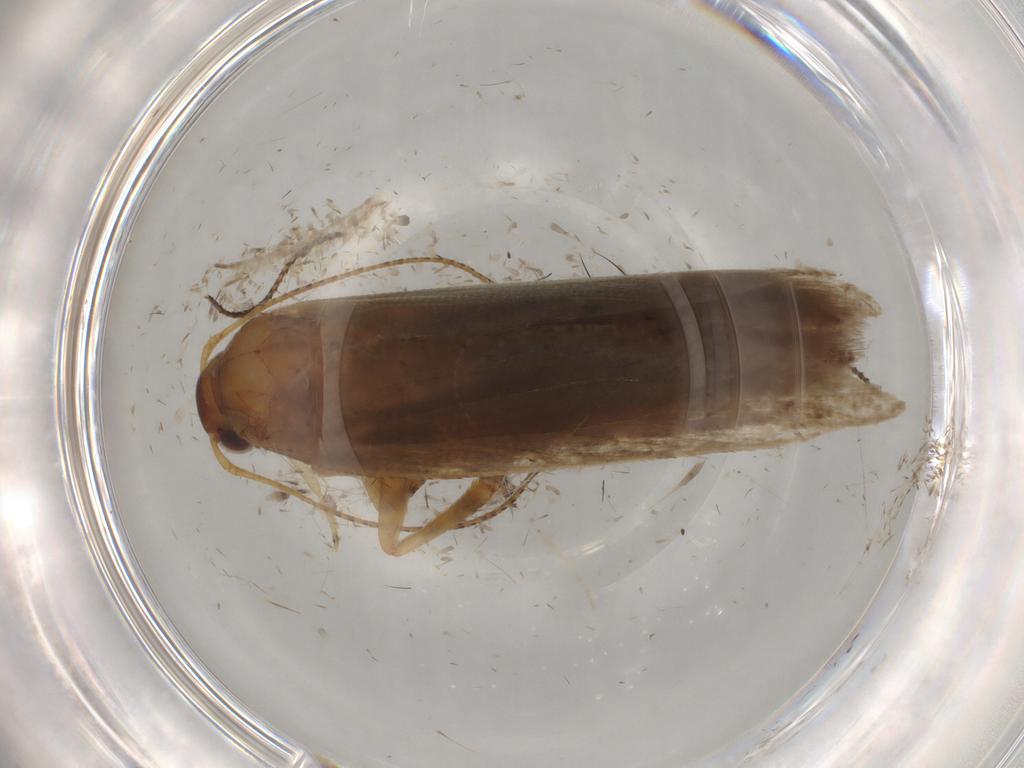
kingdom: Animalia
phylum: Arthropoda
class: Insecta
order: Lepidoptera
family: Gelechiidae
